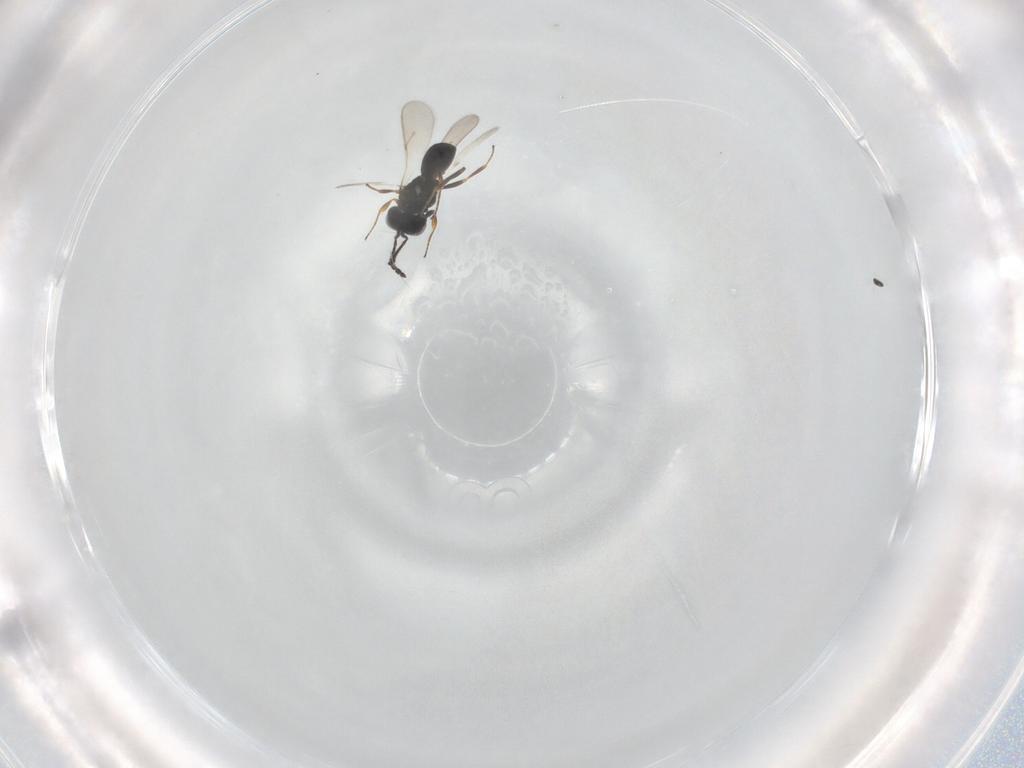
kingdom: Animalia
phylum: Arthropoda
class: Insecta
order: Hymenoptera
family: Scelionidae
